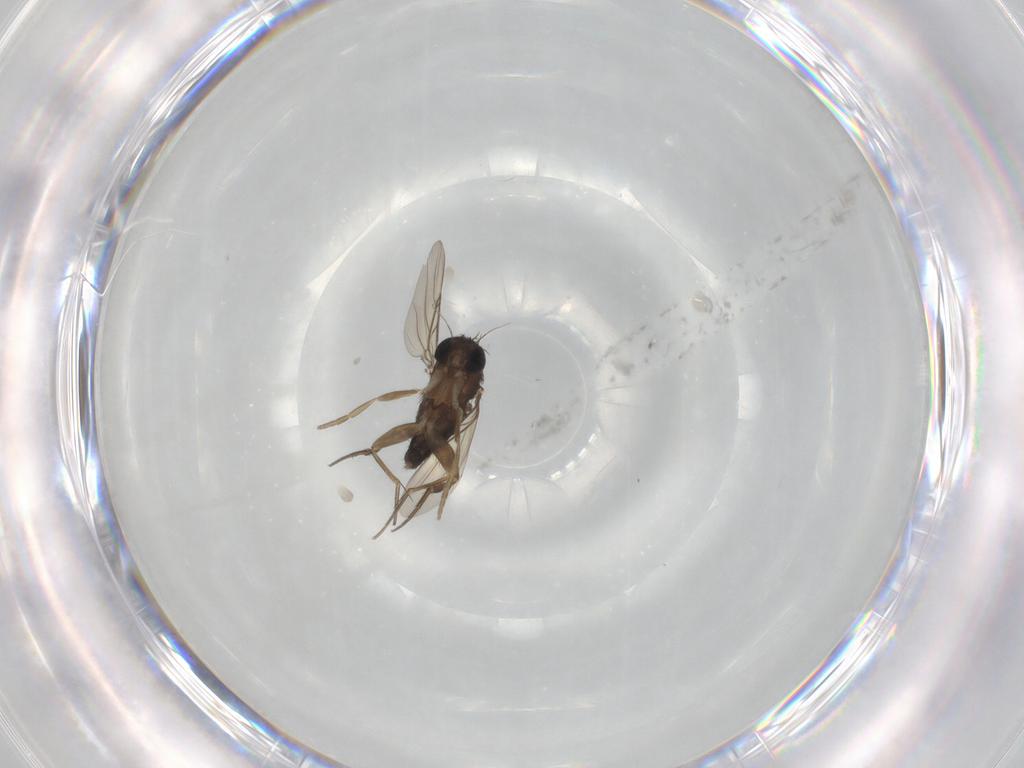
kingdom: Animalia
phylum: Arthropoda
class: Insecta
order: Diptera
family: Phoridae
